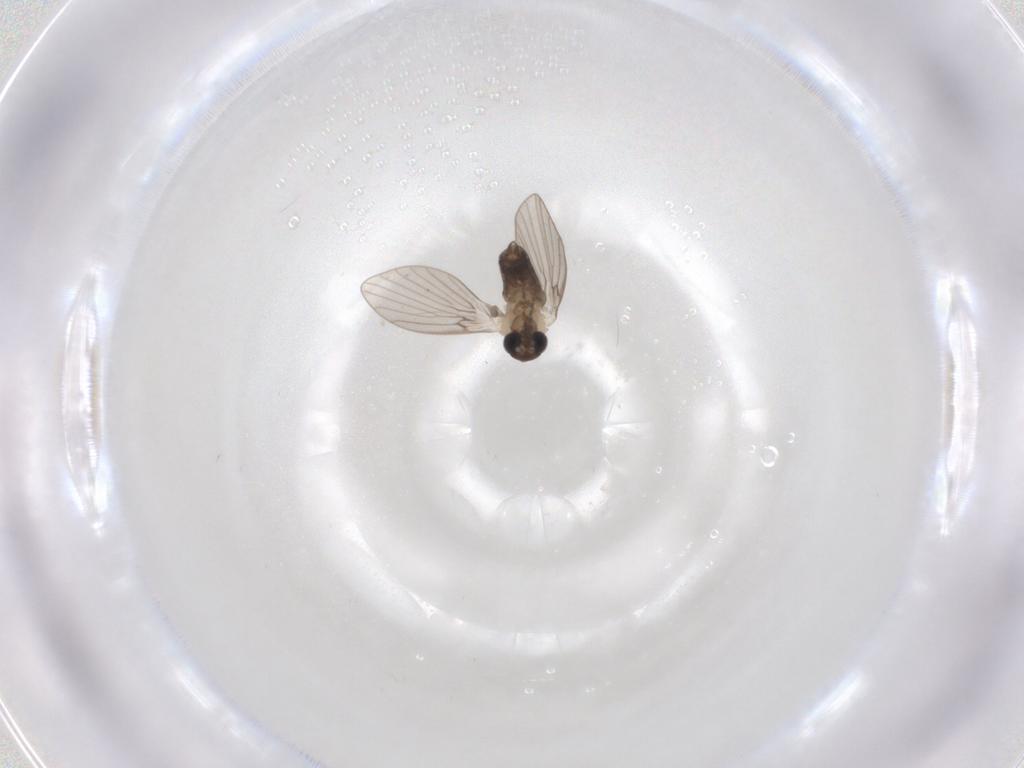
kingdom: Animalia
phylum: Arthropoda
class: Insecta
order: Diptera
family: Psychodidae
